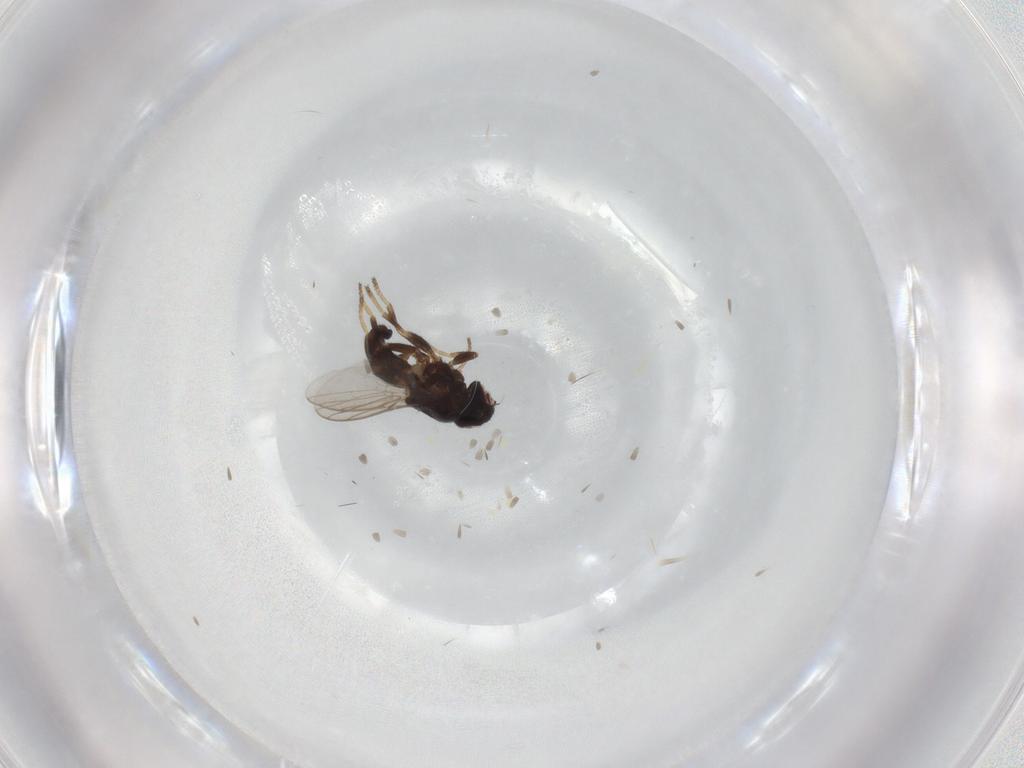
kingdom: Animalia
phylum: Arthropoda
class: Insecta
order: Diptera
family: Chloropidae
